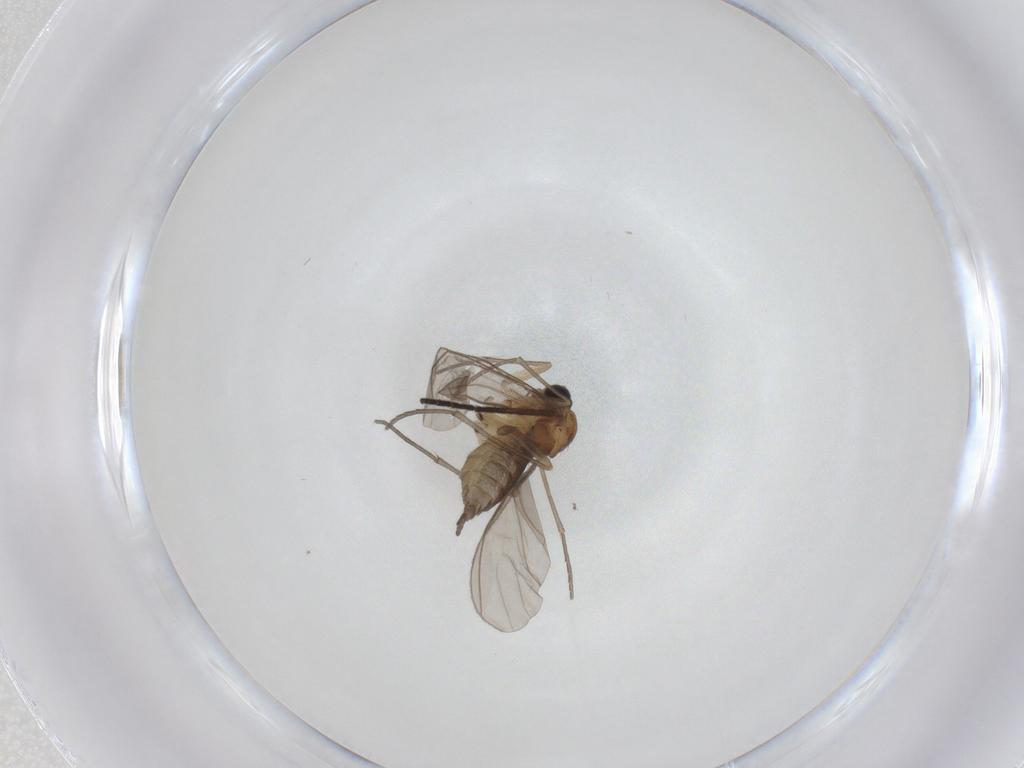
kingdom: Animalia
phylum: Arthropoda
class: Insecta
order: Diptera
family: Sciaridae
